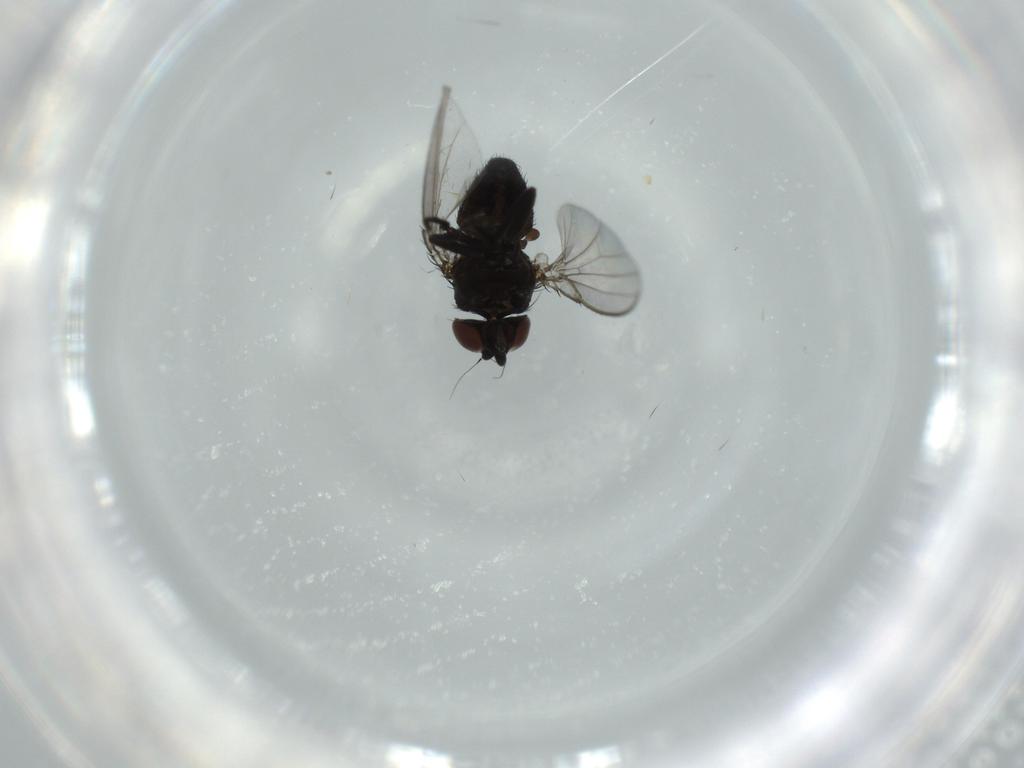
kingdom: Animalia
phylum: Arthropoda
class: Insecta
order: Diptera
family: Milichiidae
